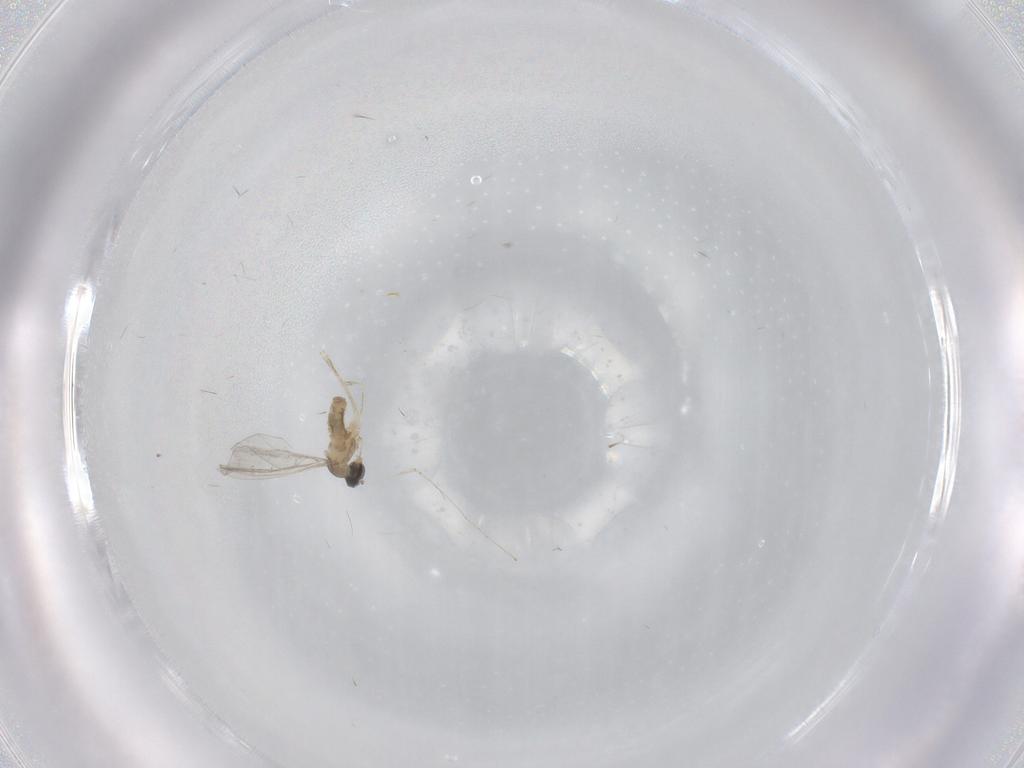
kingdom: Animalia
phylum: Arthropoda
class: Insecta
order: Diptera
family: Cecidomyiidae
